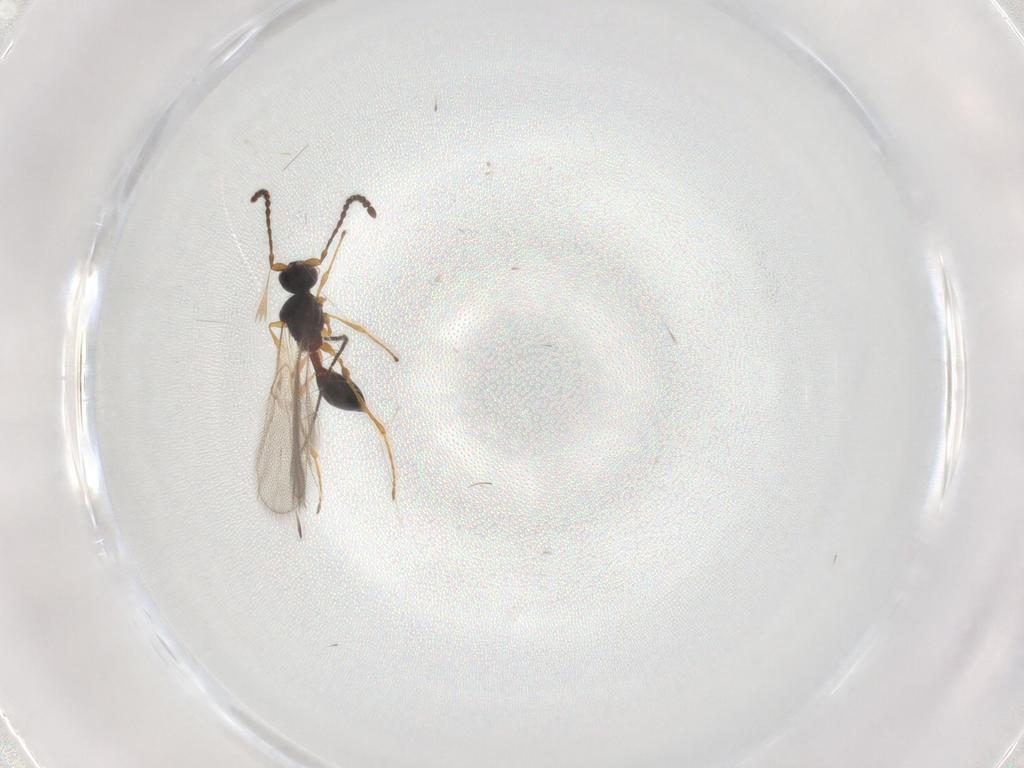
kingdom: Animalia
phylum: Arthropoda
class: Insecta
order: Hymenoptera
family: Diapriidae
